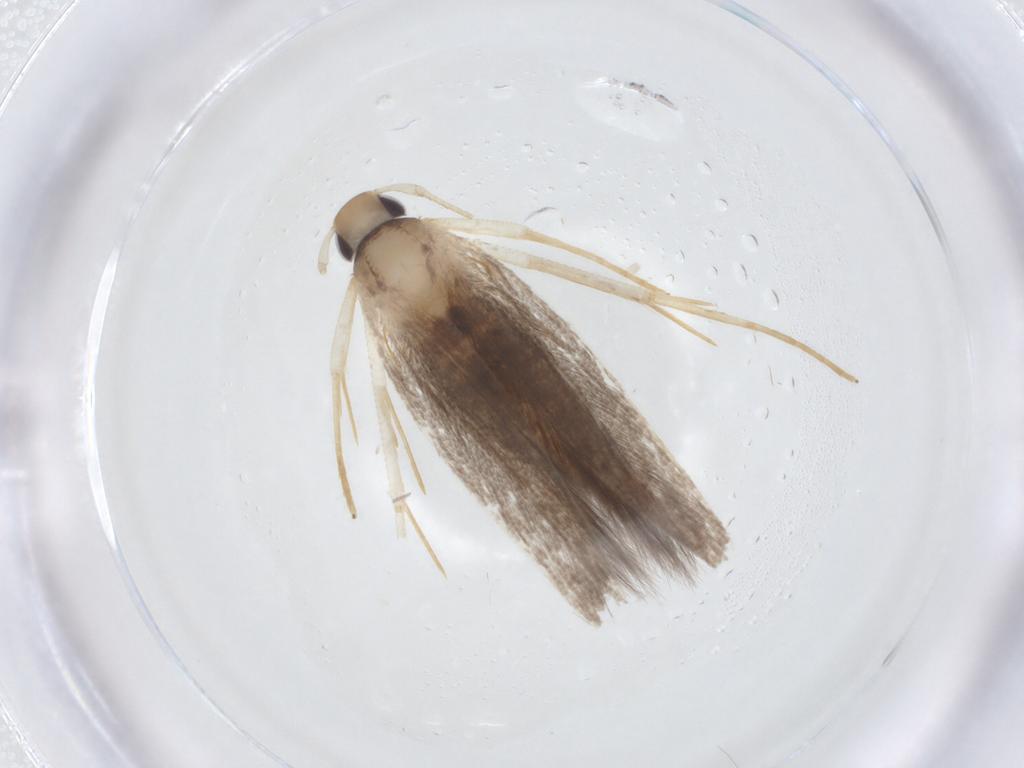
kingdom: Animalia
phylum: Arthropoda
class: Insecta
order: Lepidoptera
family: Cosmopterigidae
